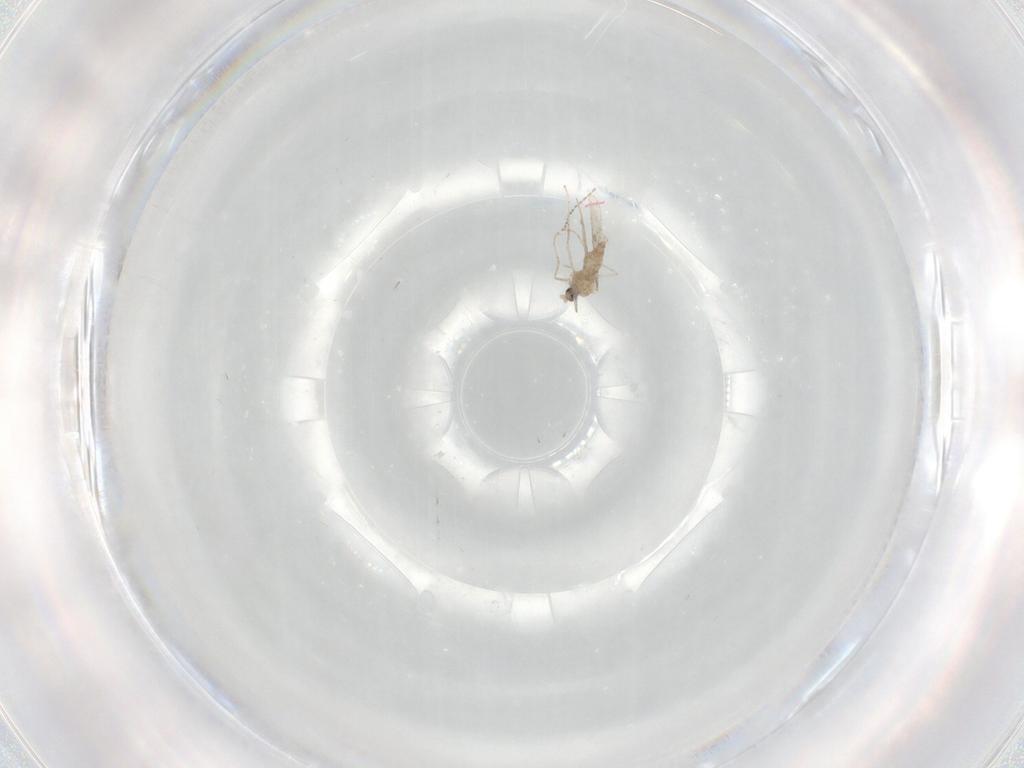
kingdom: Animalia
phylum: Arthropoda
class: Insecta
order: Diptera
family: Cecidomyiidae
